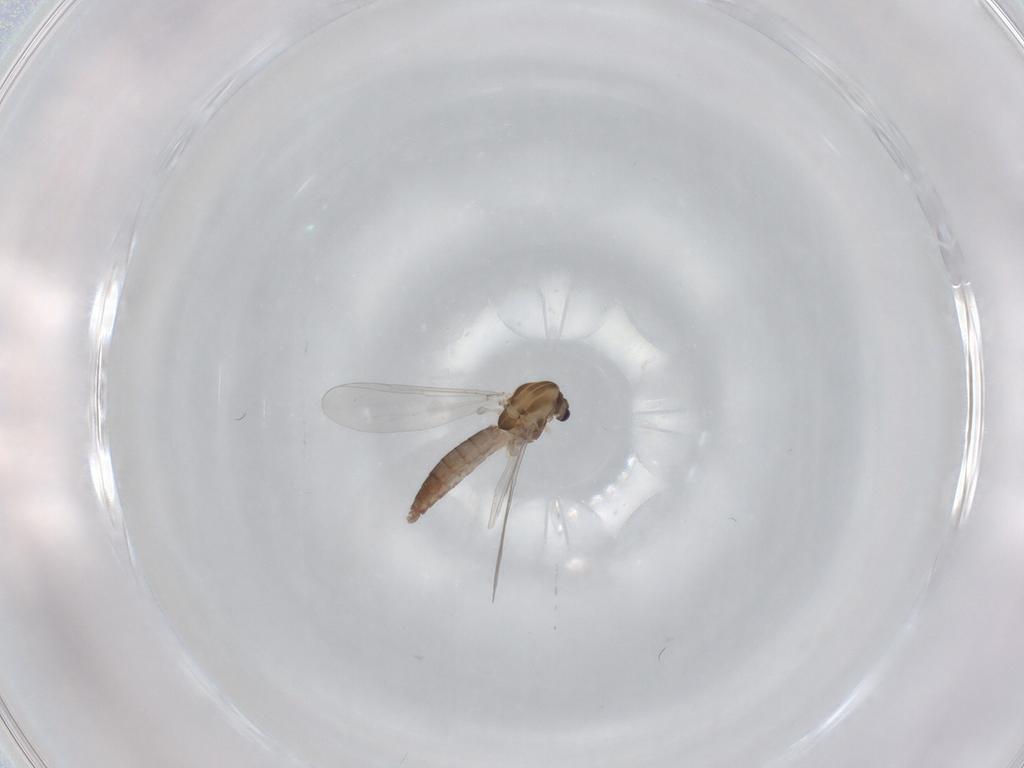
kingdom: Animalia
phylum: Arthropoda
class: Insecta
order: Diptera
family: Chironomidae
